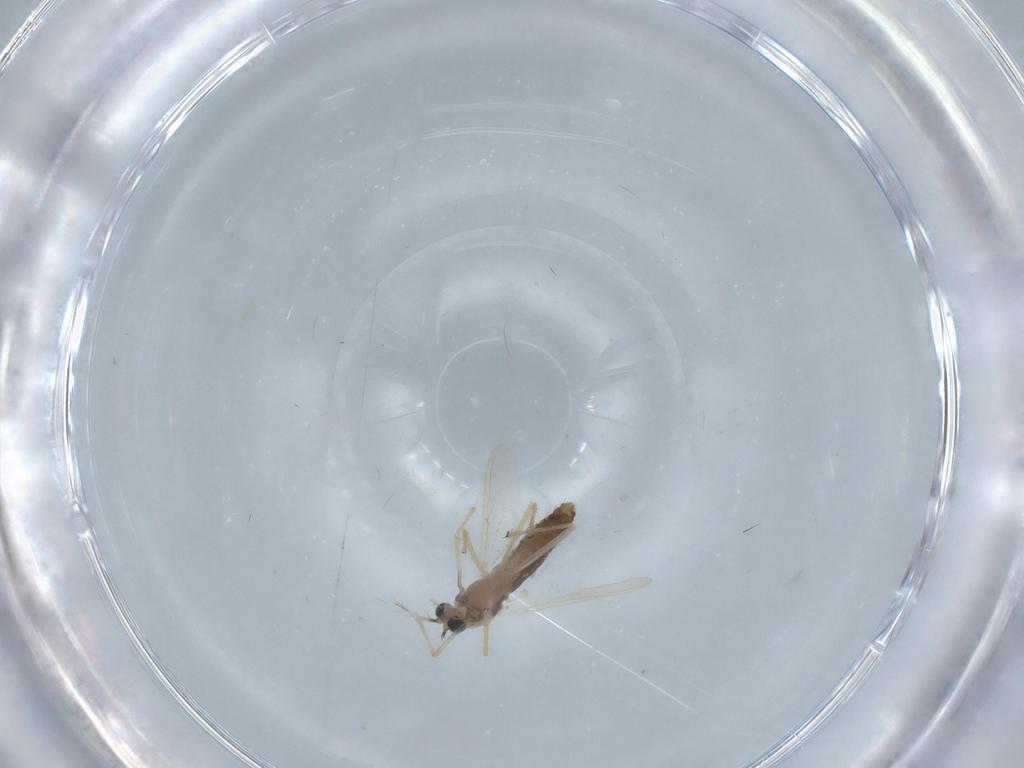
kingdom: Animalia
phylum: Arthropoda
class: Insecta
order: Diptera
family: Chironomidae
